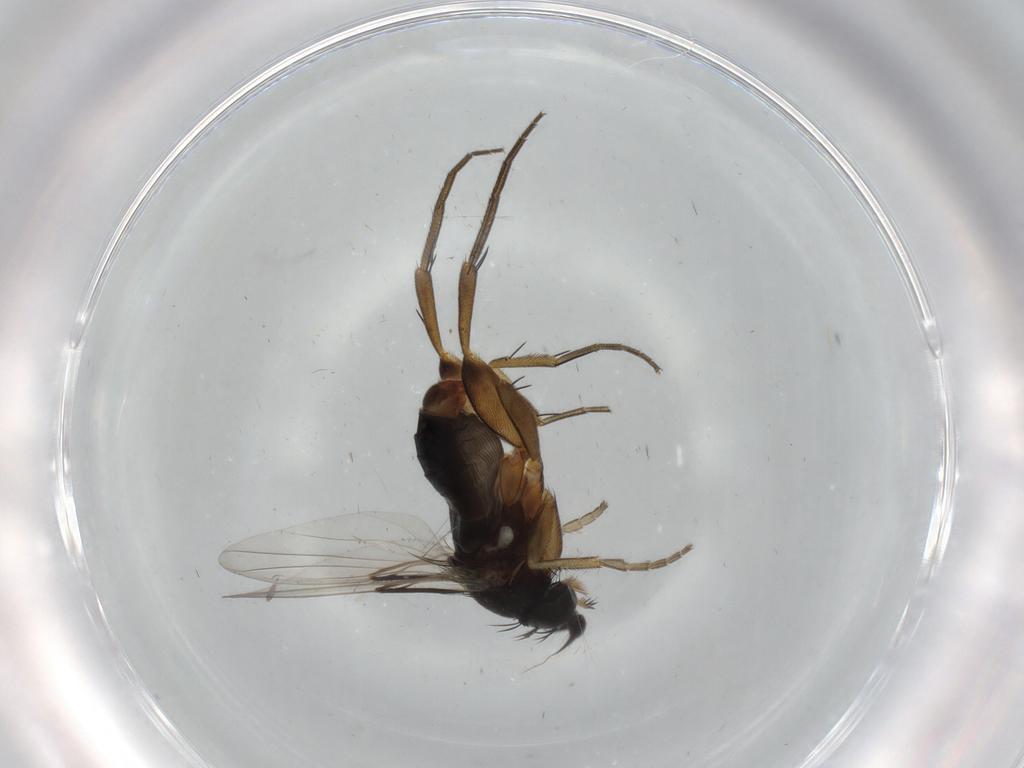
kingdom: Animalia
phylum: Arthropoda
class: Insecta
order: Diptera
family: Phoridae
